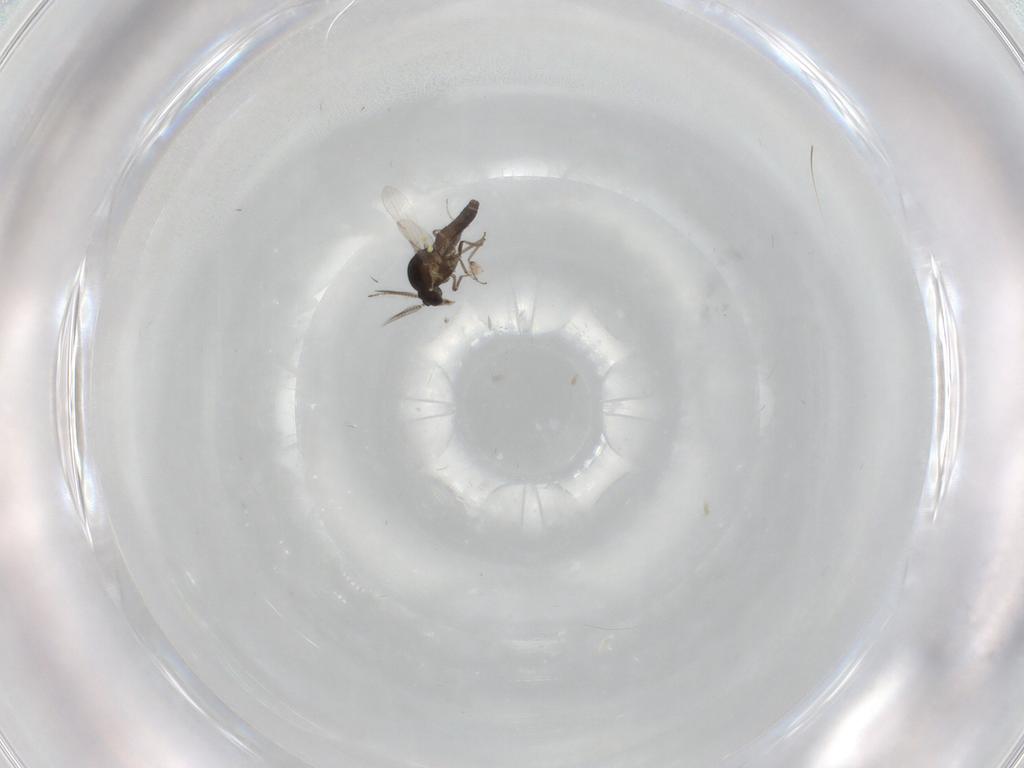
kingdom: Animalia
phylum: Arthropoda
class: Insecta
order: Diptera
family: Ceratopogonidae
